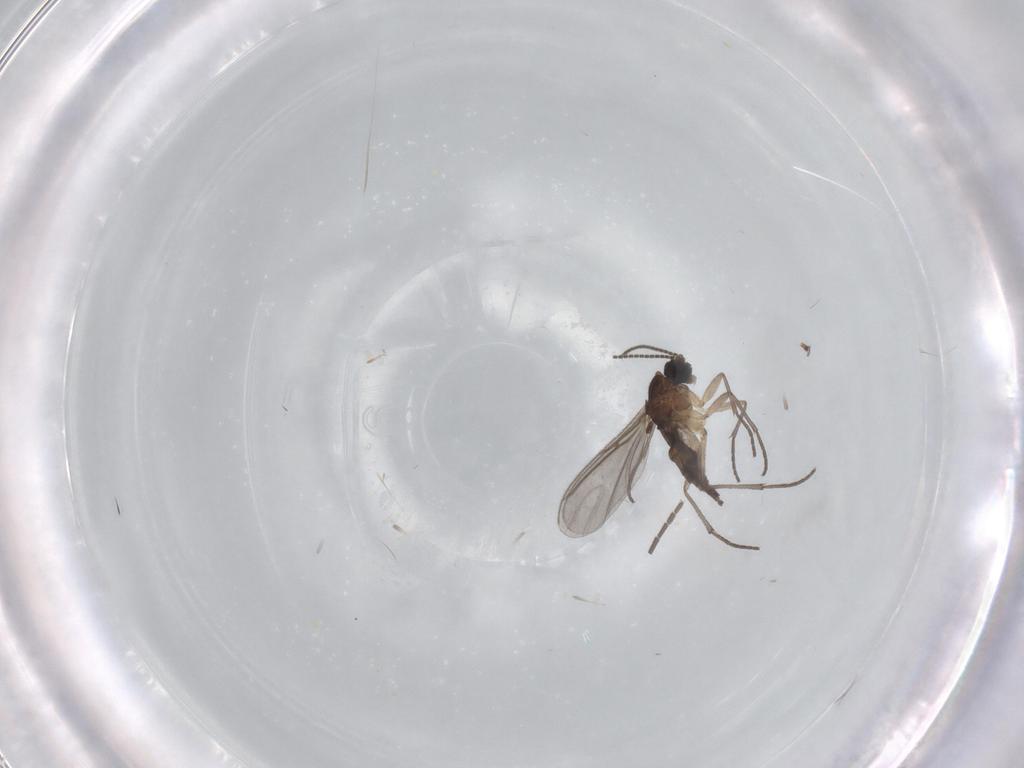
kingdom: Animalia
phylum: Arthropoda
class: Insecta
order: Diptera
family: Sciaridae
